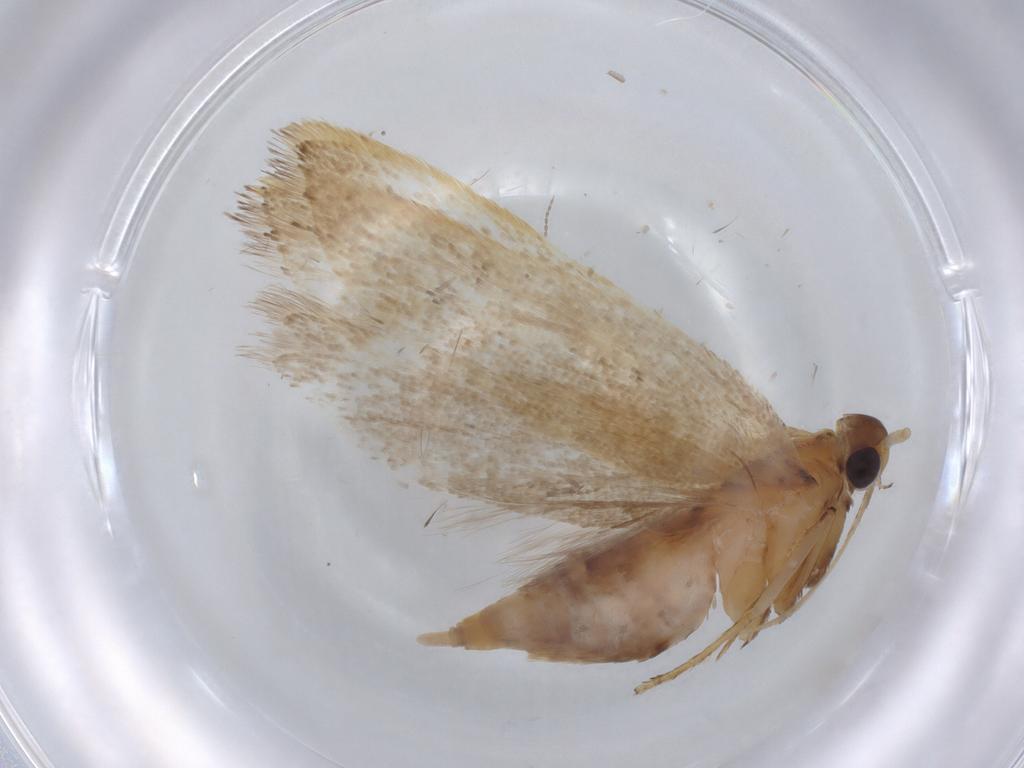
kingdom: Animalia
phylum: Arthropoda
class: Insecta
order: Lepidoptera
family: Lecithoceridae
